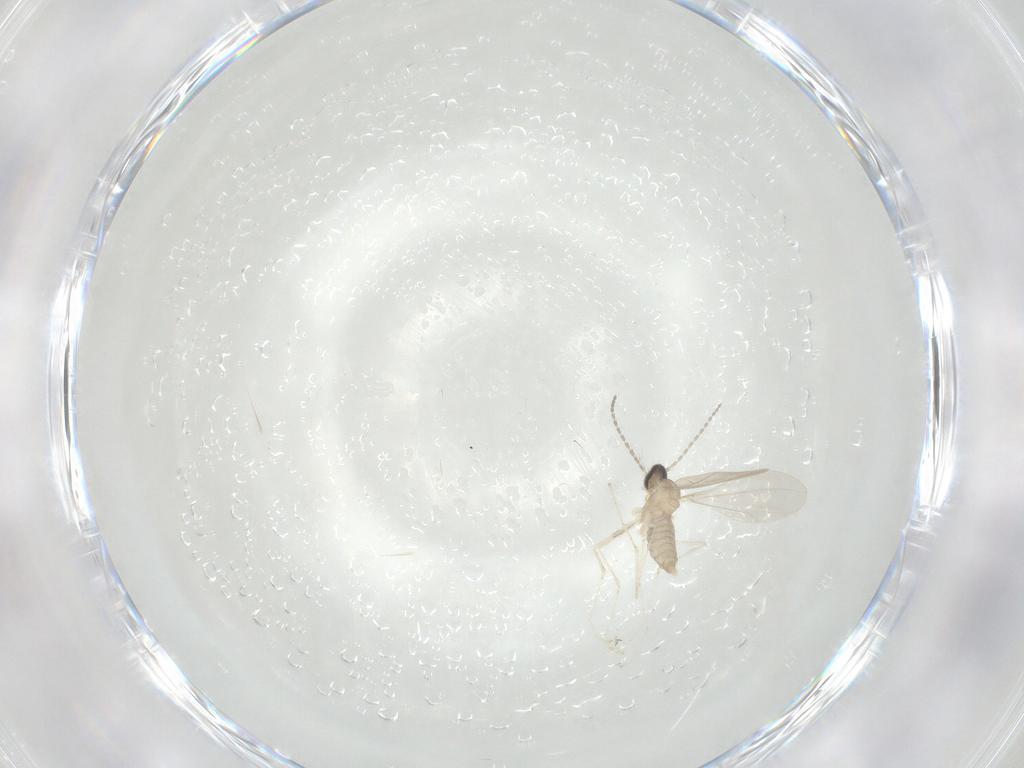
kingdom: Animalia
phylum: Arthropoda
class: Insecta
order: Diptera
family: Cecidomyiidae
